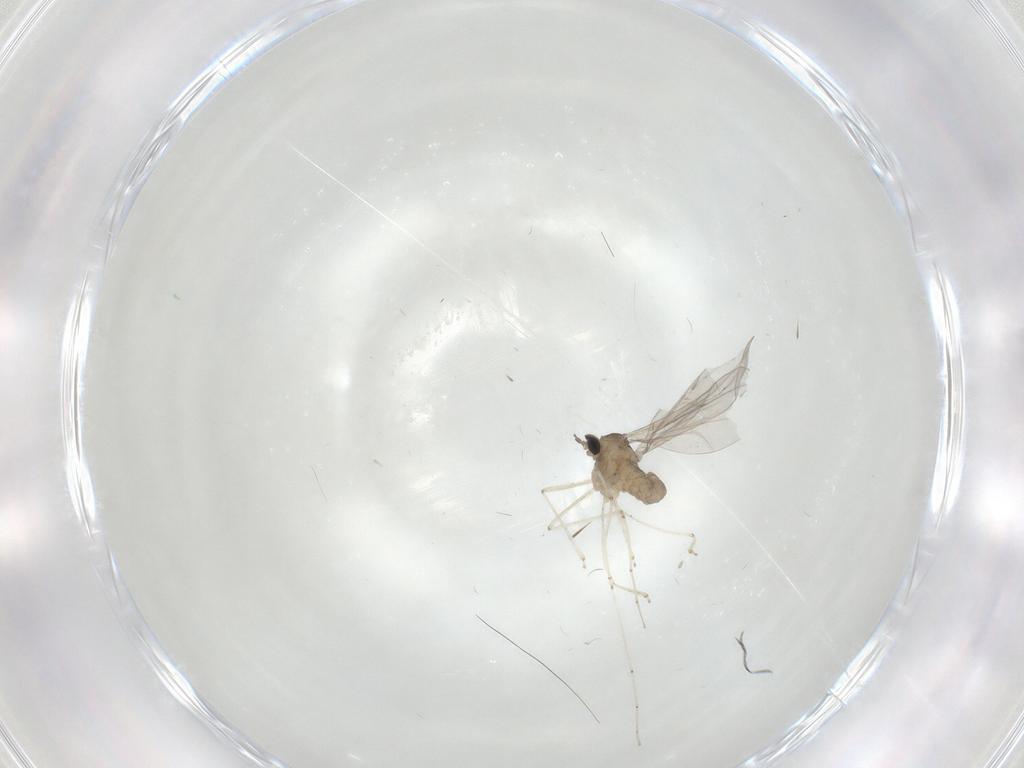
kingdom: Animalia
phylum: Arthropoda
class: Insecta
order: Diptera
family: Cecidomyiidae
